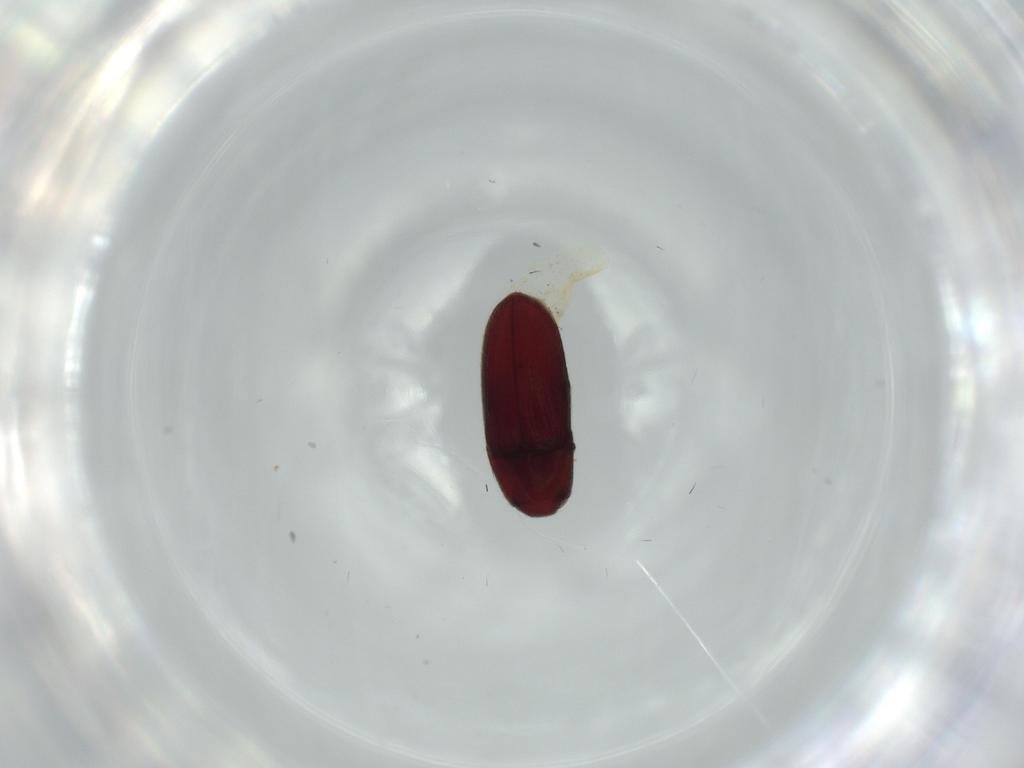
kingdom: Animalia
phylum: Arthropoda
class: Insecta
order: Coleoptera
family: Throscidae
